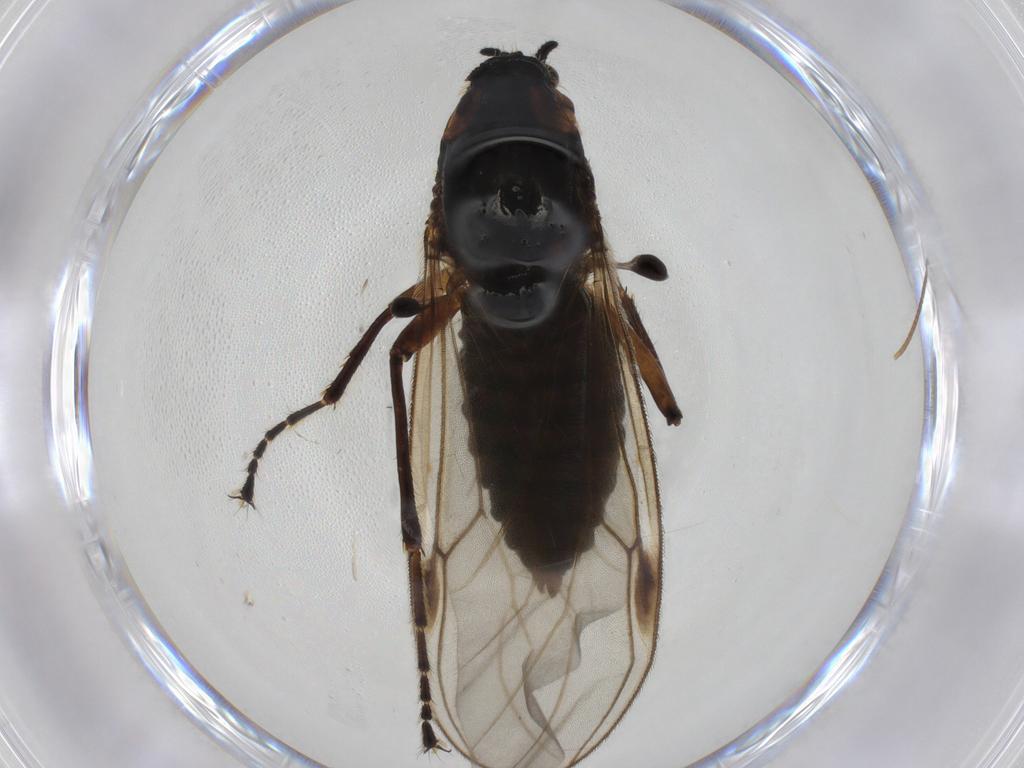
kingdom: Animalia
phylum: Arthropoda
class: Insecta
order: Diptera
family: Bibionidae
